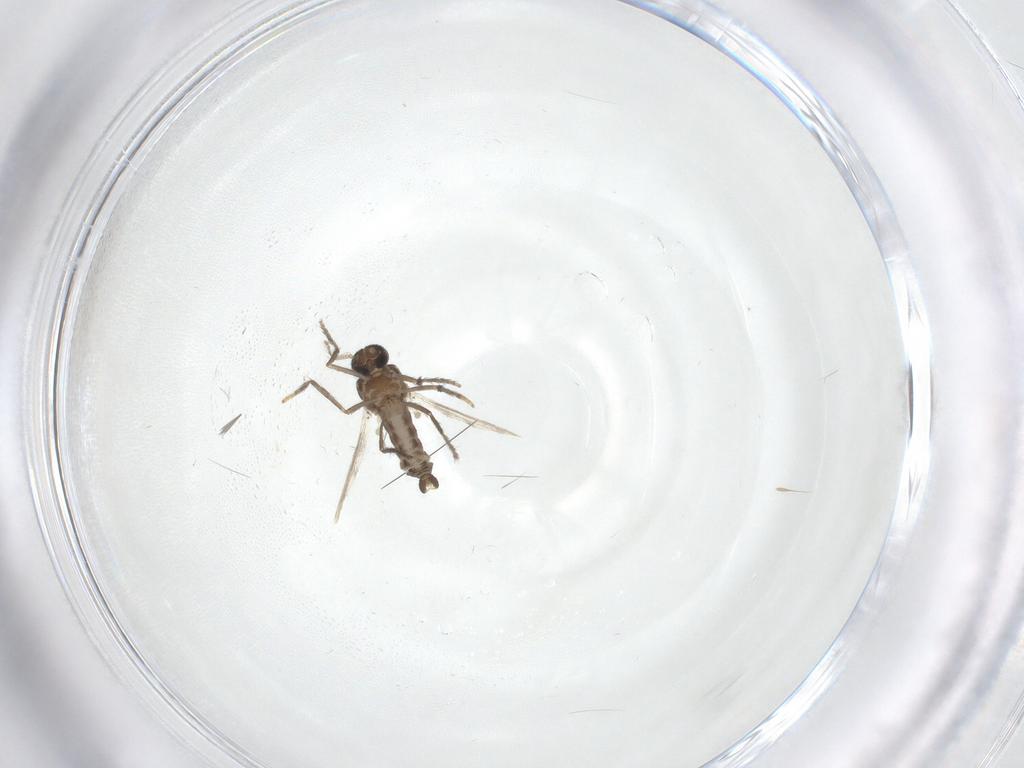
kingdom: Animalia
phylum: Arthropoda
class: Insecta
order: Diptera
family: Ceratopogonidae
